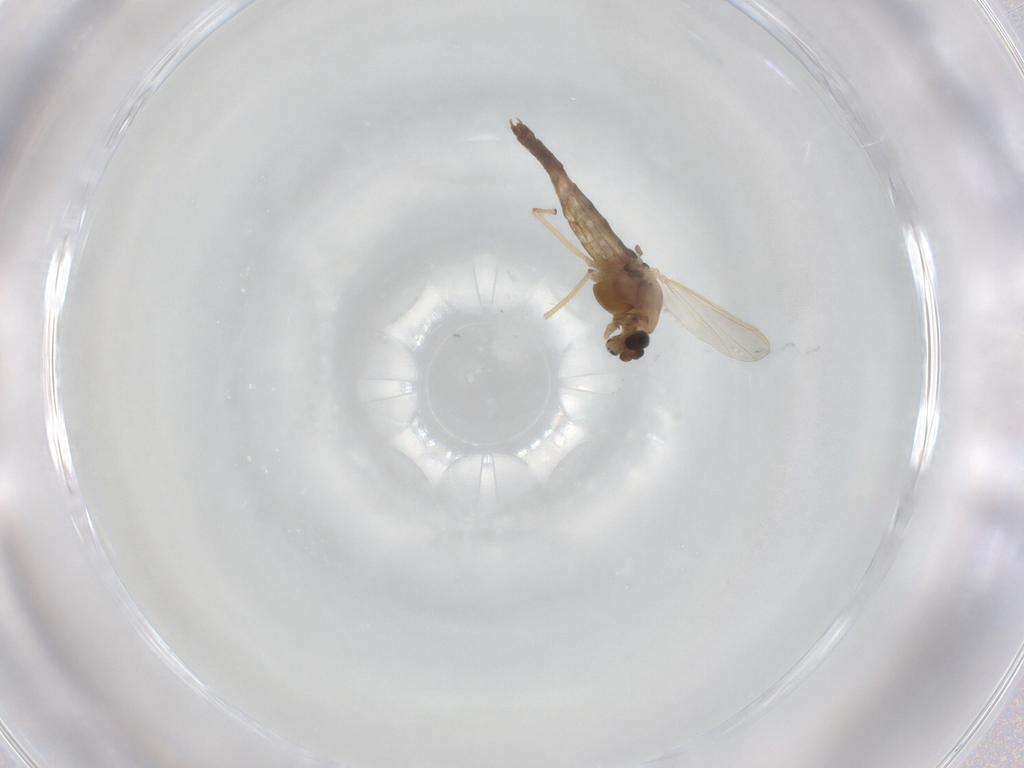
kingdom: Animalia
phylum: Arthropoda
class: Insecta
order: Diptera
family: Chironomidae
